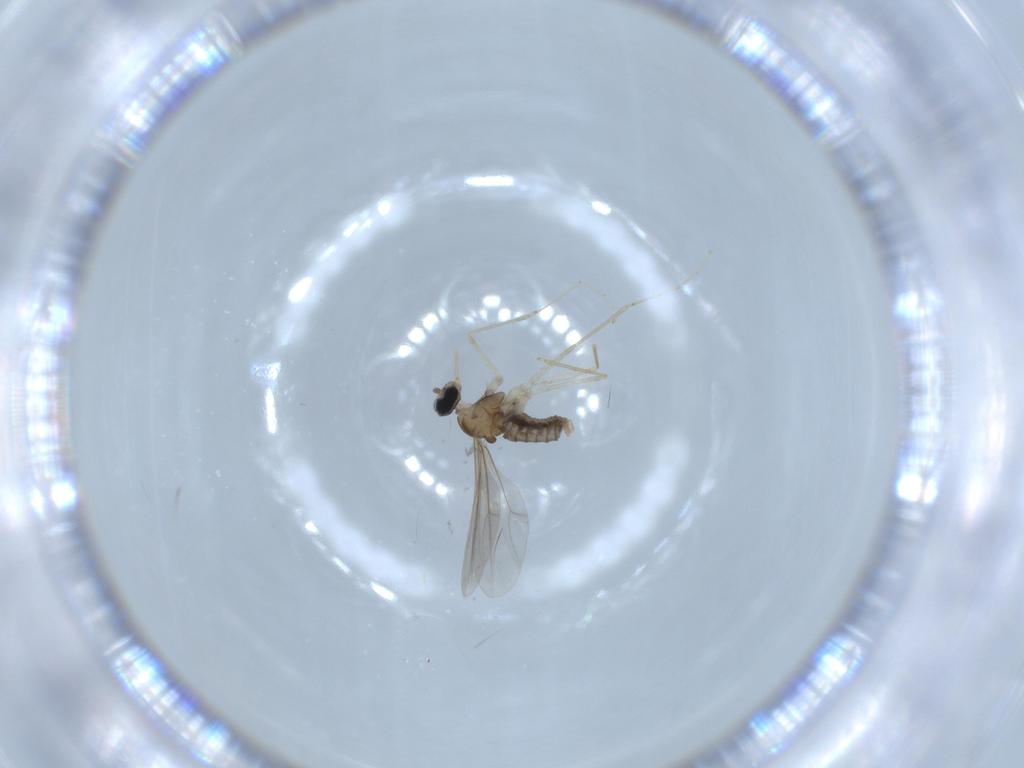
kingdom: Animalia
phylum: Arthropoda
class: Insecta
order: Diptera
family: Cecidomyiidae
